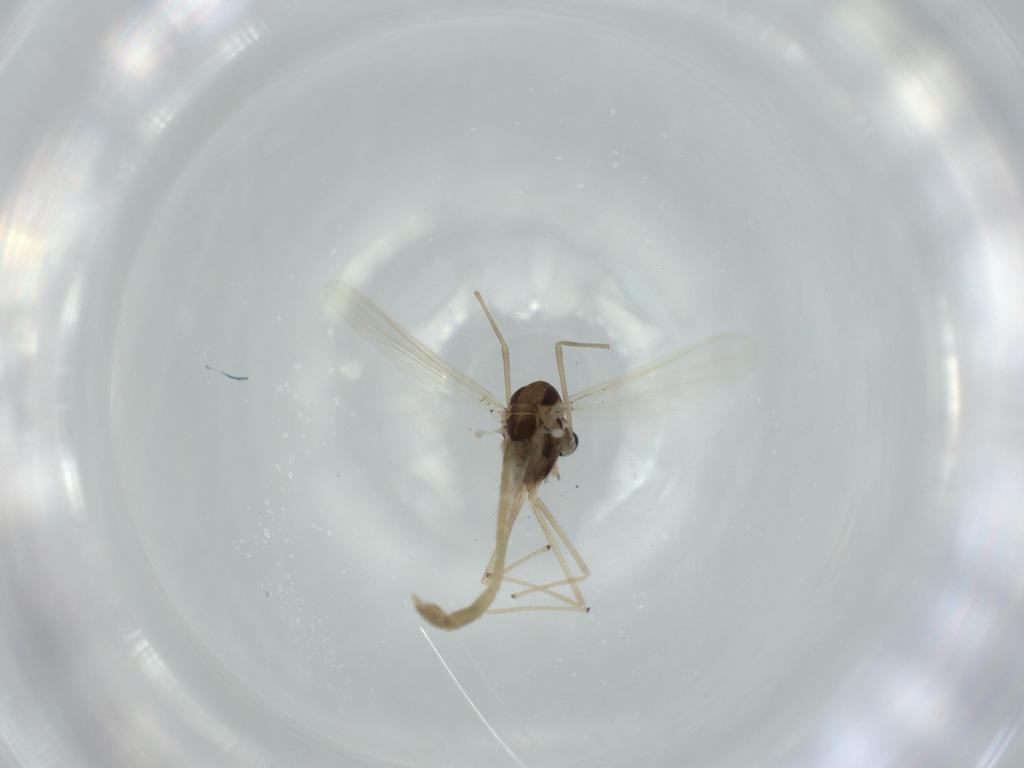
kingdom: Animalia
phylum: Arthropoda
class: Insecta
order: Diptera
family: Chironomidae
